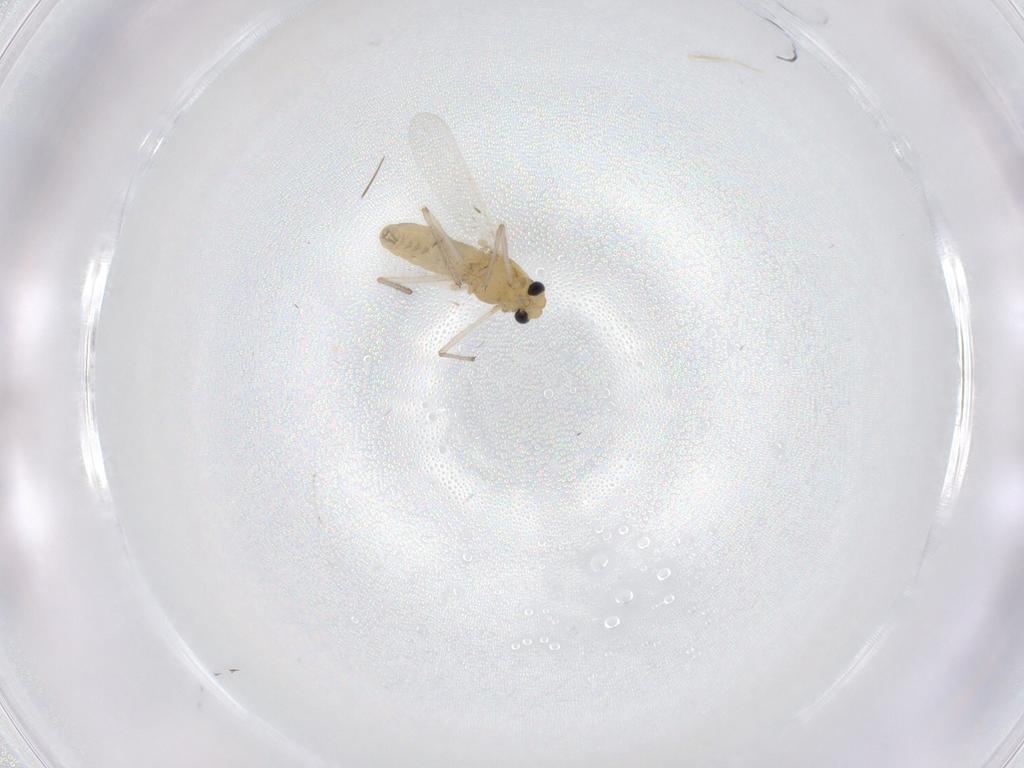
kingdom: Animalia
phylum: Arthropoda
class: Insecta
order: Diptera
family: Chironomidae
